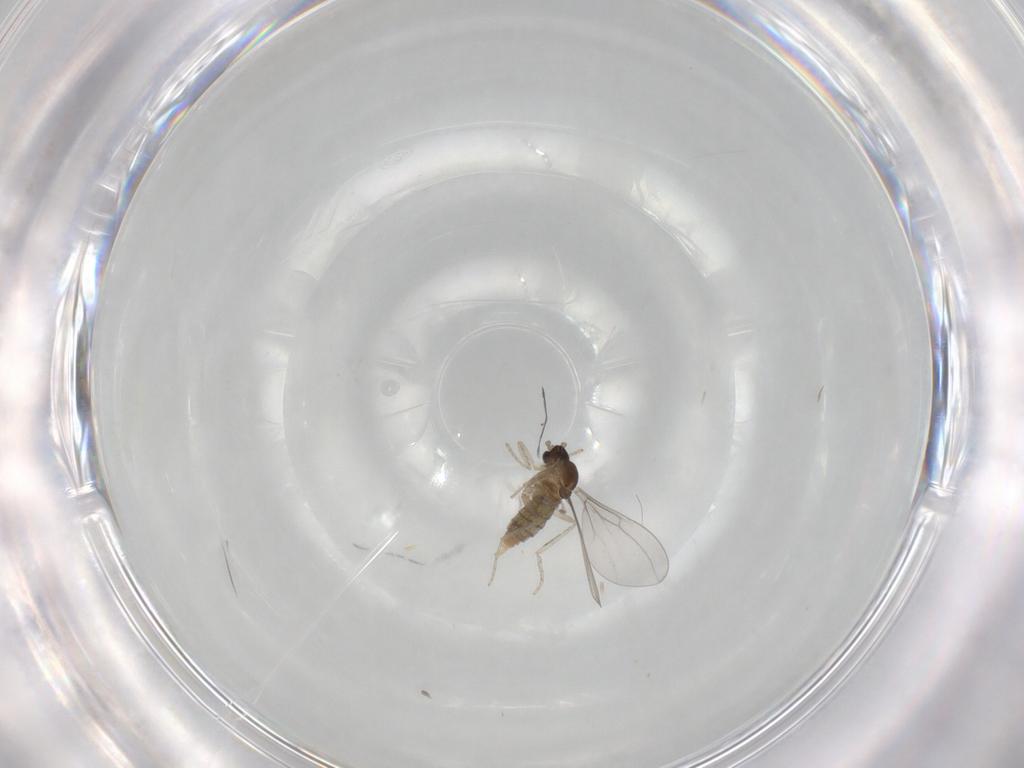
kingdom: Animalia
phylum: Arthropoda
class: Insecta
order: Diptera
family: Cecidomyiidae
